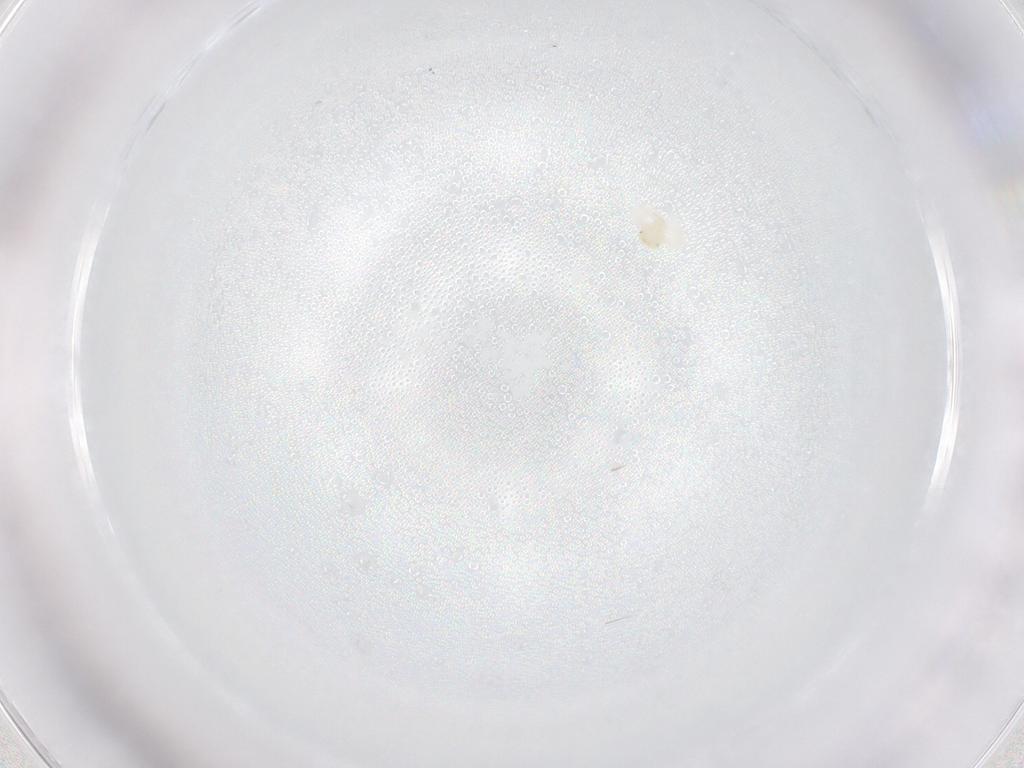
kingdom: Animalia
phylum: Arthropoda
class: Arachnida
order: Trombidiformes
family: Anystidae
